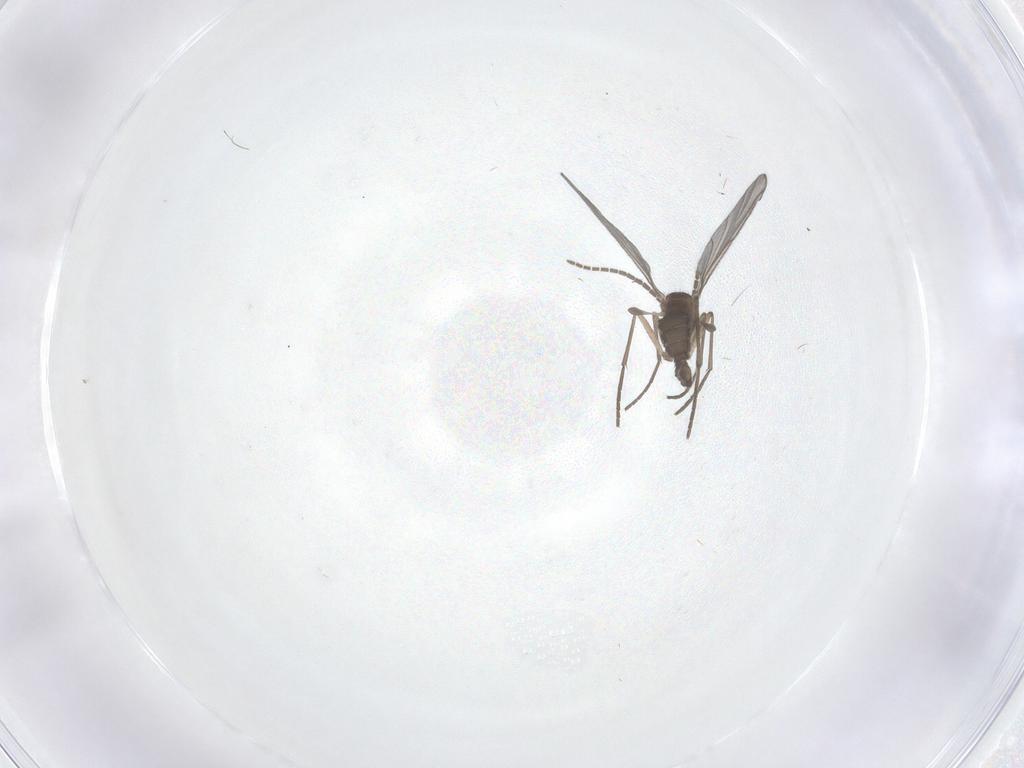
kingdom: Animalia
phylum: Arthropoda
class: Insecta
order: Diptera
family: Sciaridae
